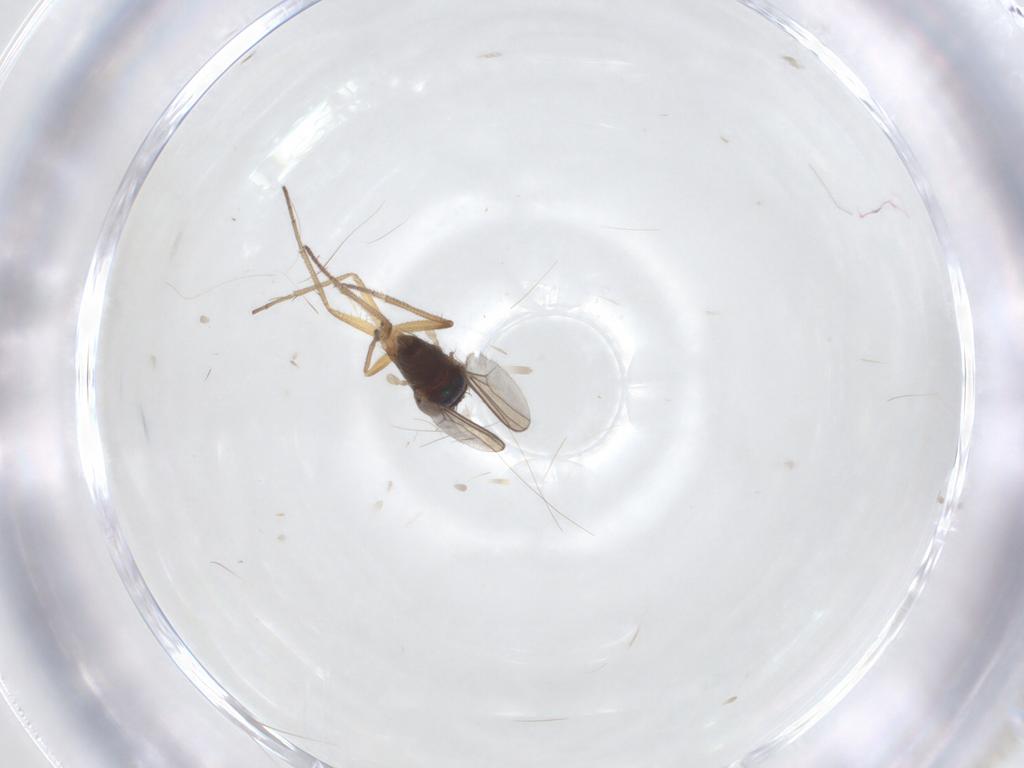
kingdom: Animalia
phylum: Arthropoda
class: Insecta
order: Diptera
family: Dolichopodidae
